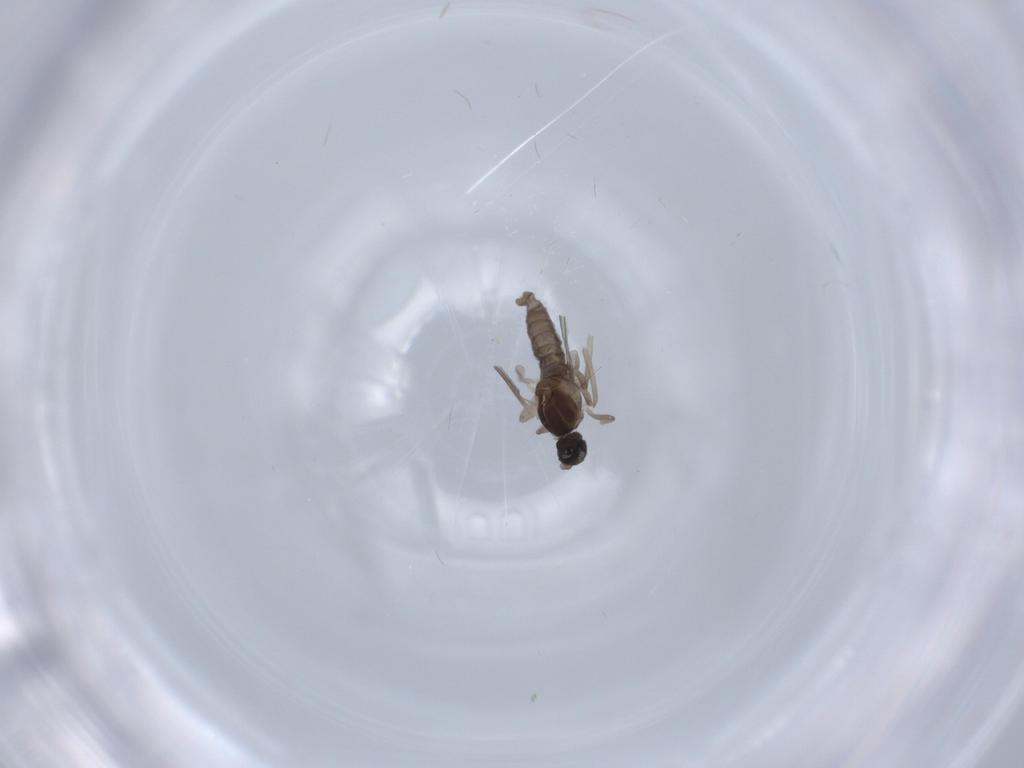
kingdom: Animalia
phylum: Arthropoda
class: Insecta
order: Diptera
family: Cecidomyiidae
